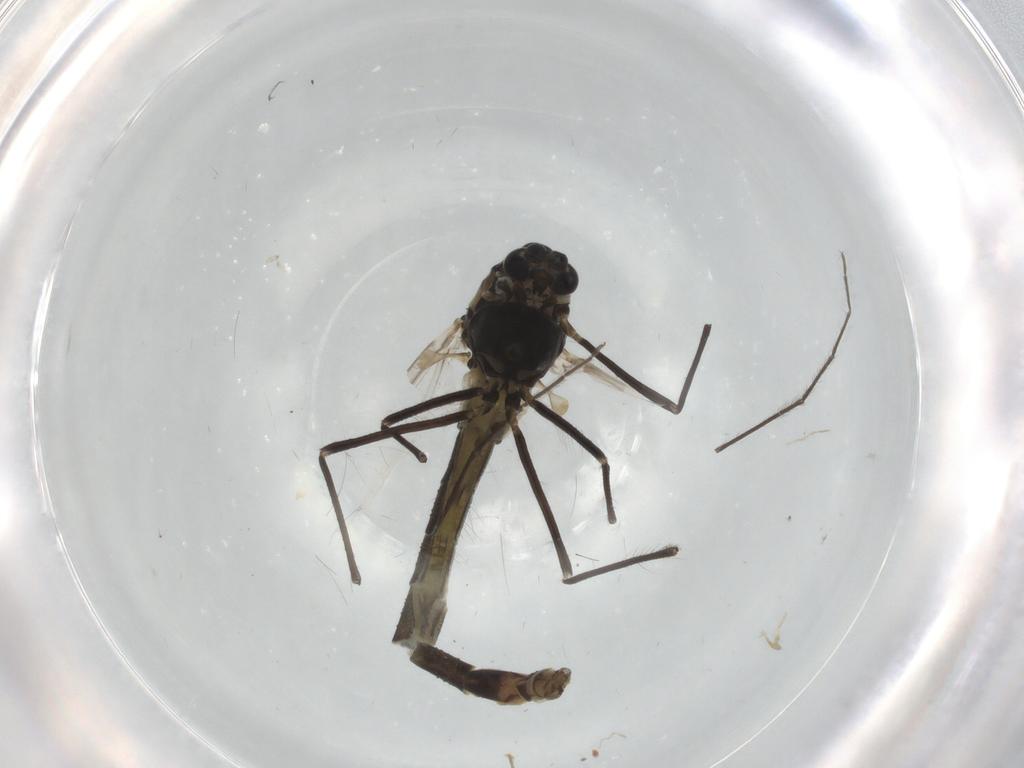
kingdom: Animalia
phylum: Arthropoda
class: Insecta
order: Diptera
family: Chironomidae
